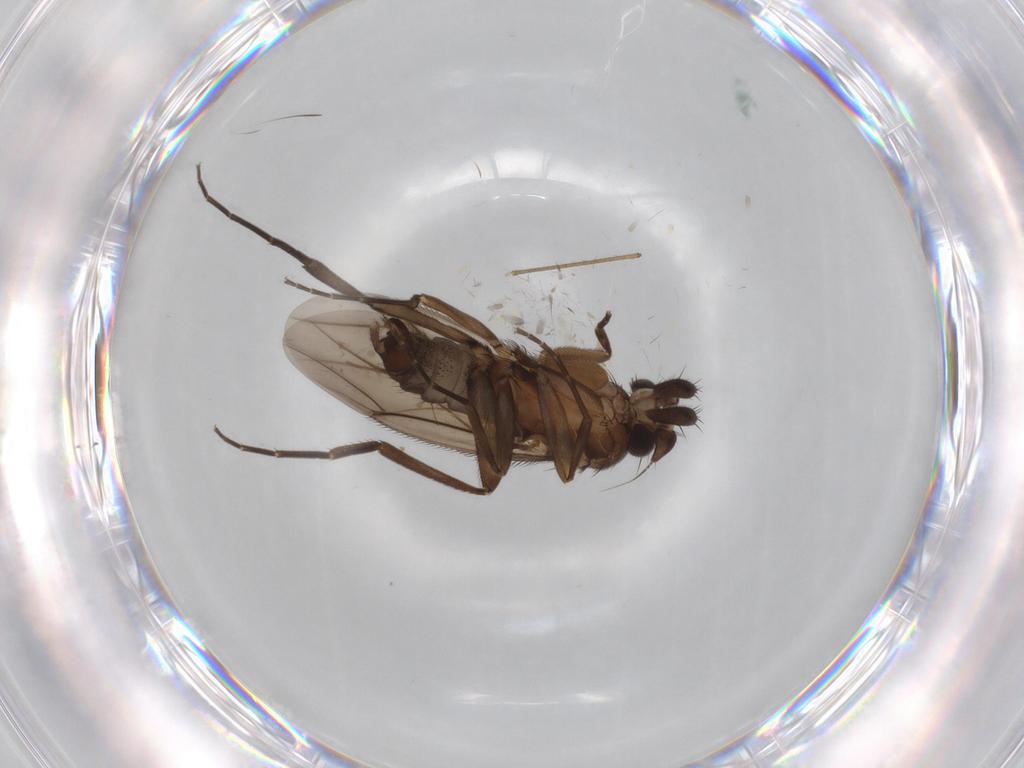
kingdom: Animalia
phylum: Arthropoda
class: Insecta
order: Diptera
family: Phoridae
